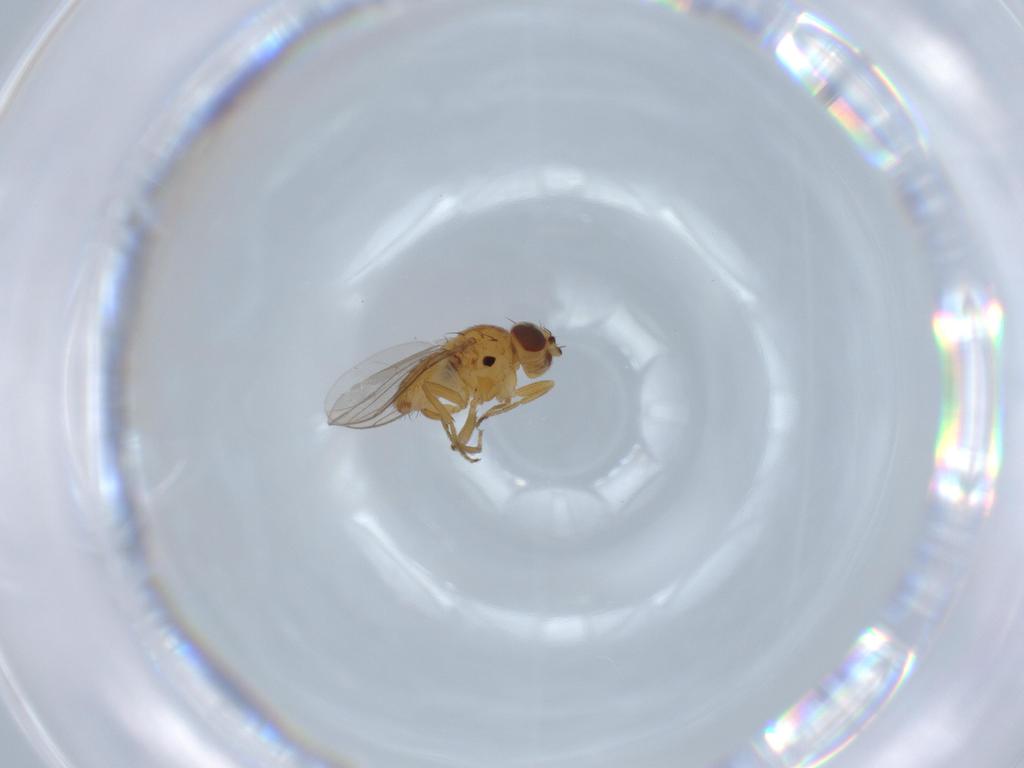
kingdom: Animalia
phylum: Arthropoda
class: Insecta
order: Diptera
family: Chloropidae
